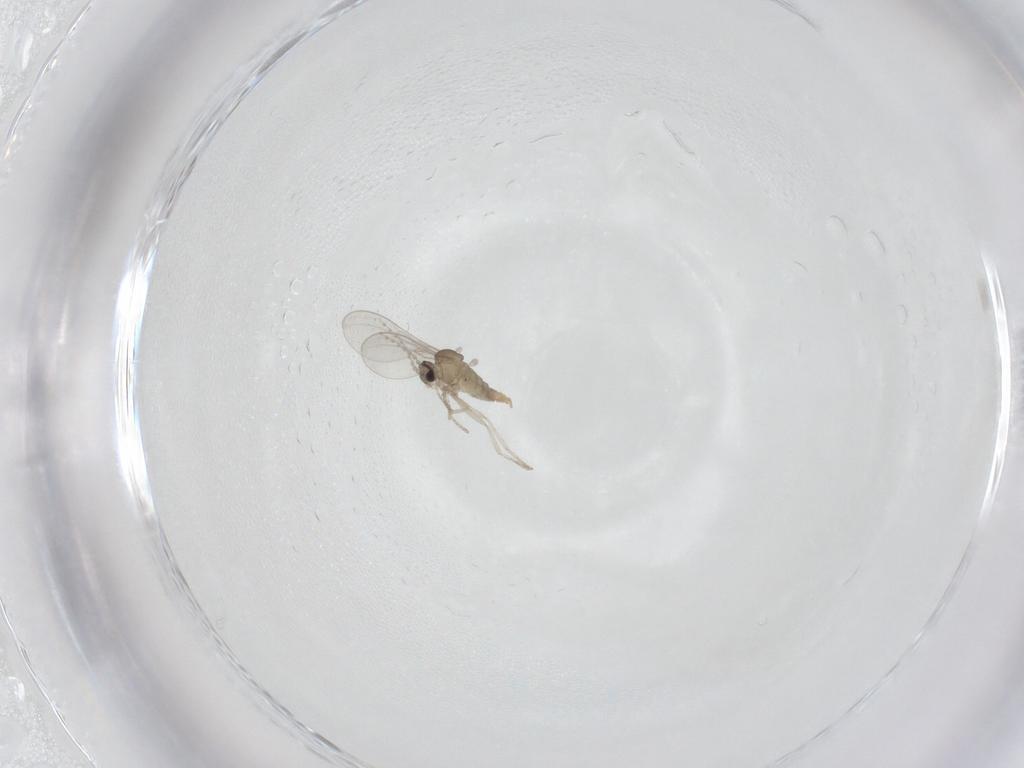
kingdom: Animalia
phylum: Arthropoda
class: Insecta
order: Diptera
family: Cecidomyiidae
